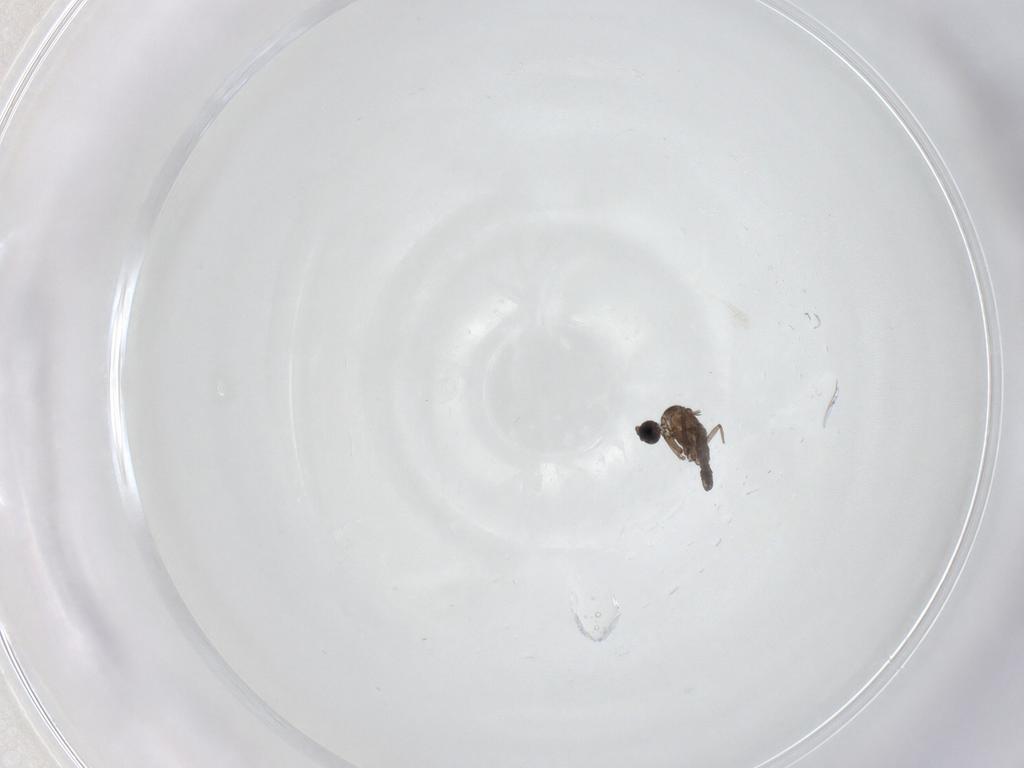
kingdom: Animalia
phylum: Arthropoda
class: Insecta
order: Diptera
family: Sciaridae
